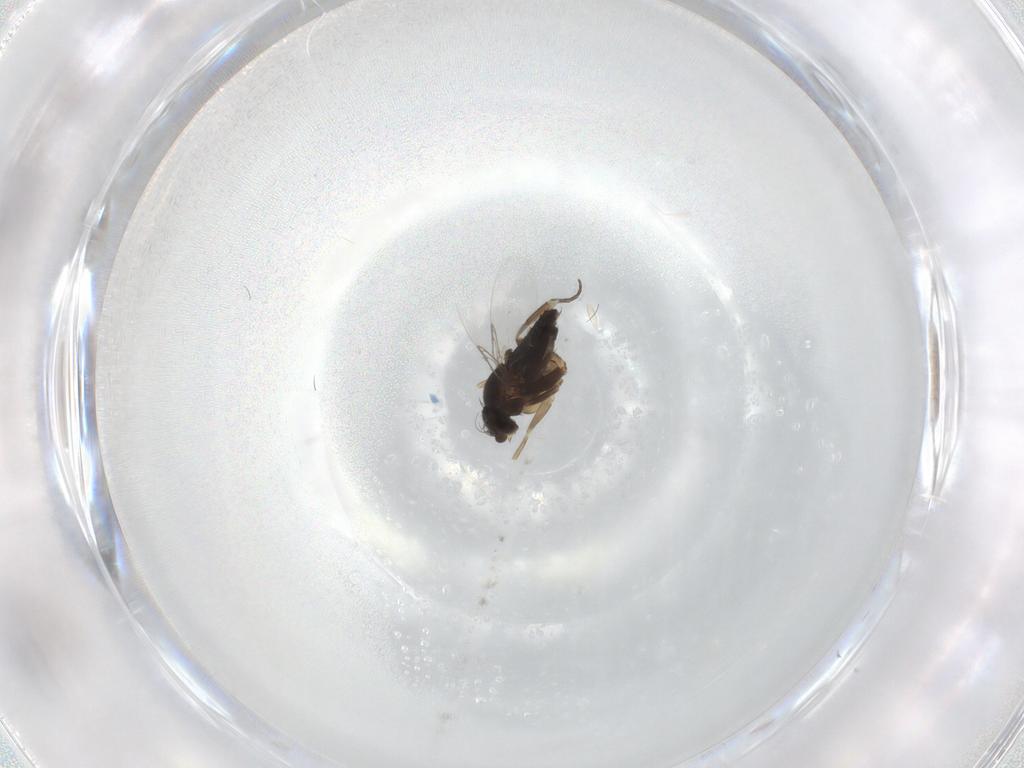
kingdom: Animalia
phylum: Arthropoda
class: Insecta
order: Diptera
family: Phoridae
